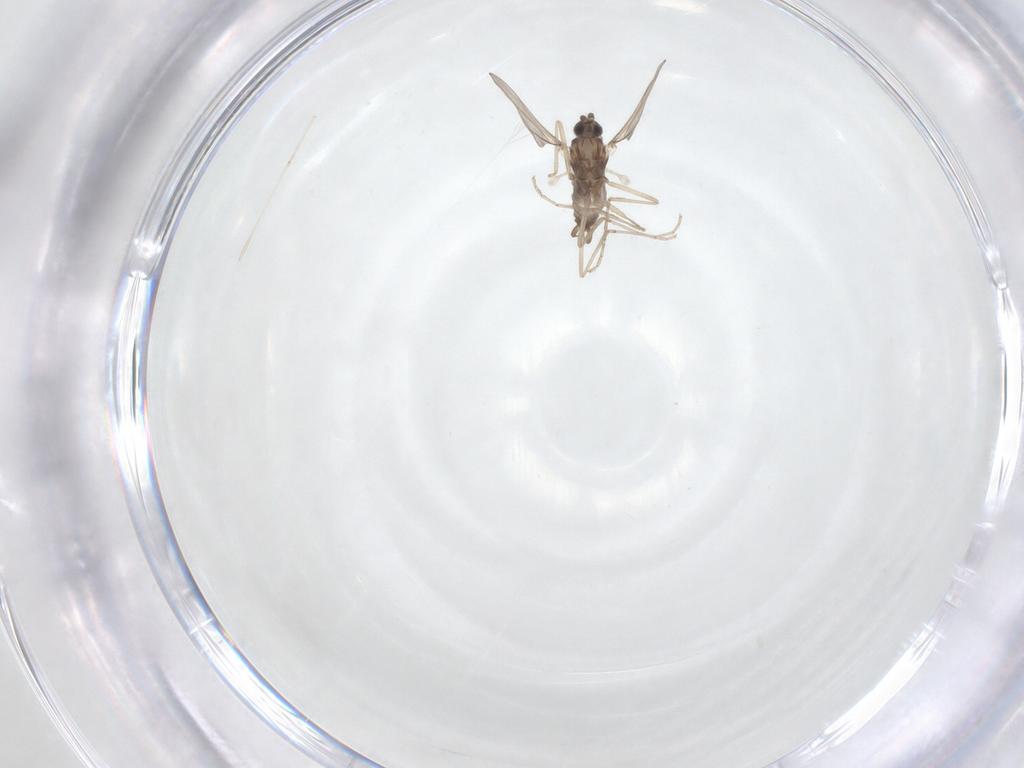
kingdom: Animalia
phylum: Arthropoda
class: Insecta
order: Diptera
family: Cecidomyiidae
